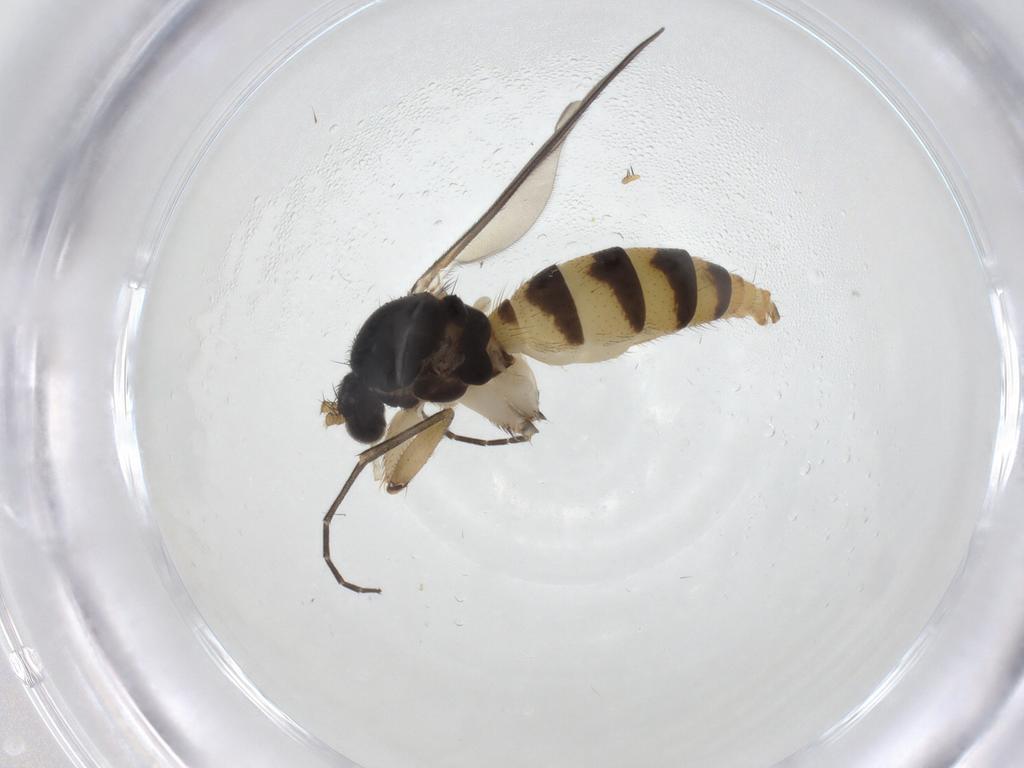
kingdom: Animalia
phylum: Arthropoda
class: Insecta
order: Diptera
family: Mycetophilidae
